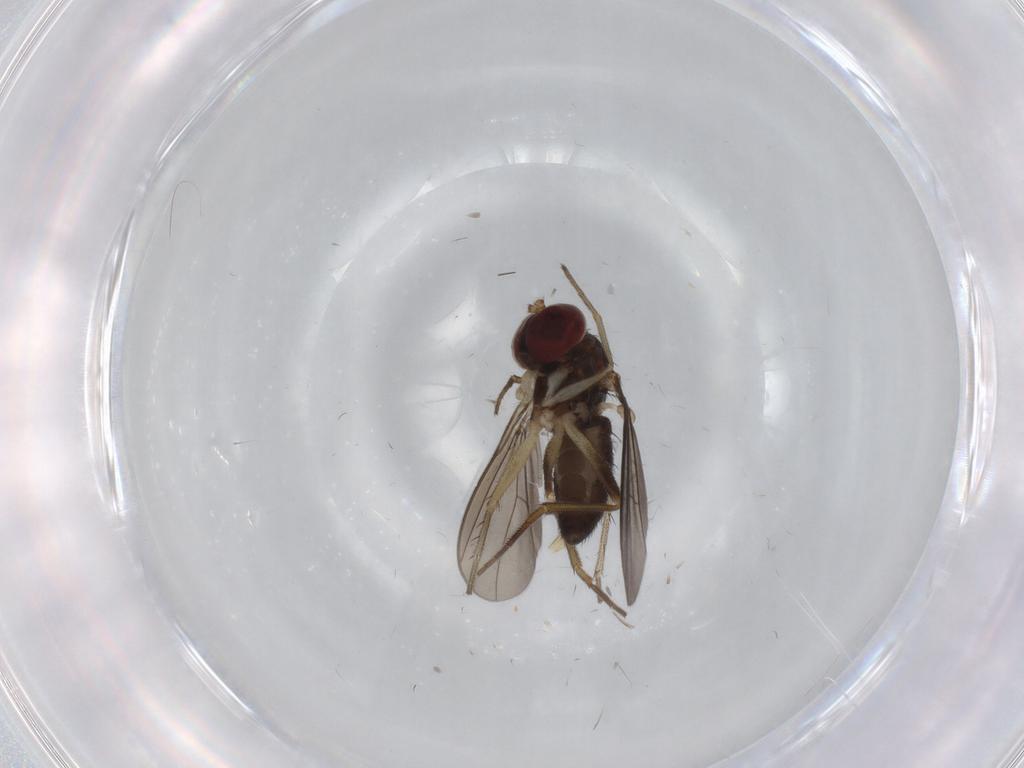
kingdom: Animalia
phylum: Arthropoda
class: Insecta
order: Diptera
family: Dolichopodidae
